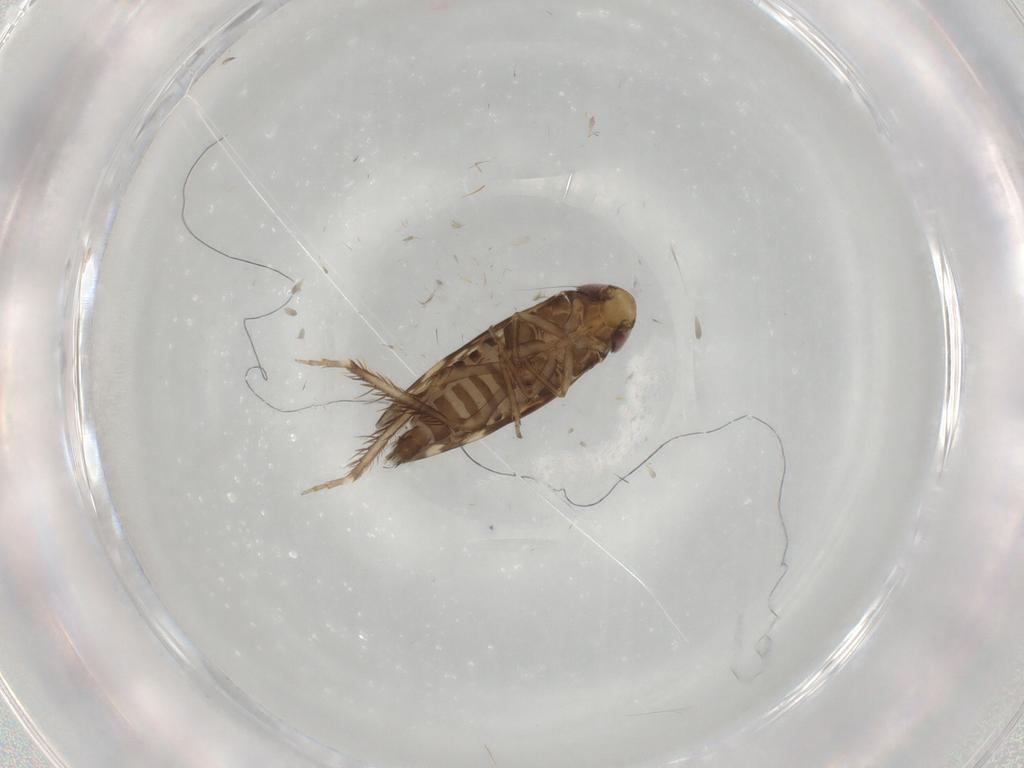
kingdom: Animalia
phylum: Arthropoda
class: Insecta
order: Hemiptera
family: Cicadellidae
